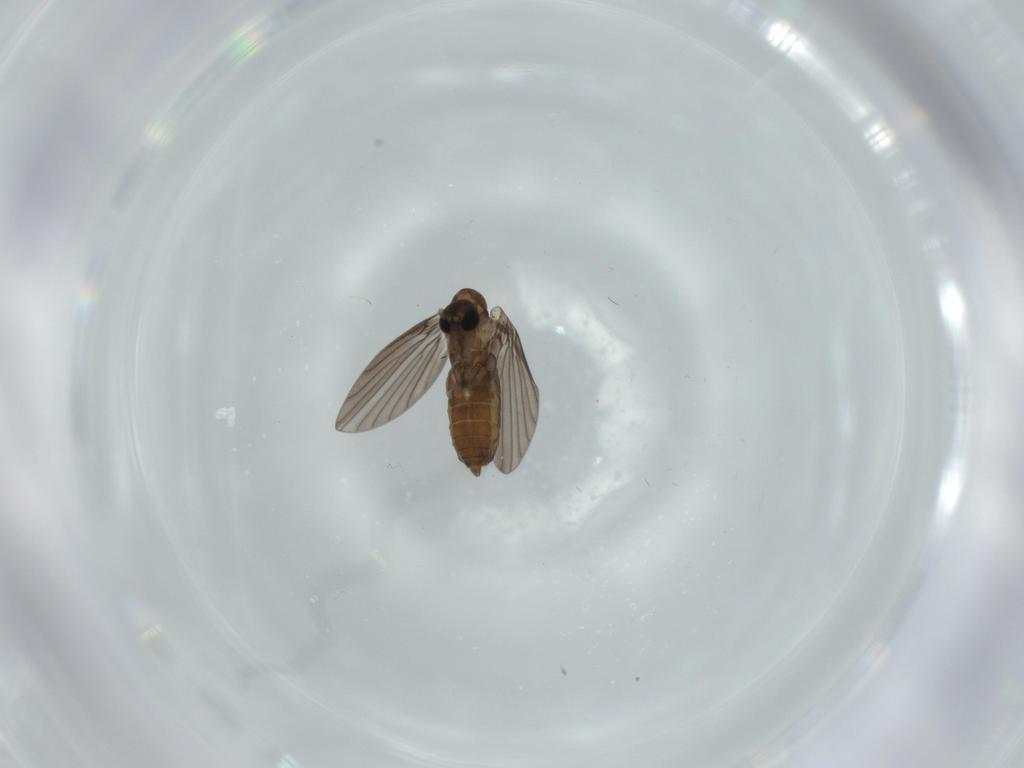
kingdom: Animalia
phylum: Arthropoda
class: Insecta
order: Diptera
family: Psychodidae
